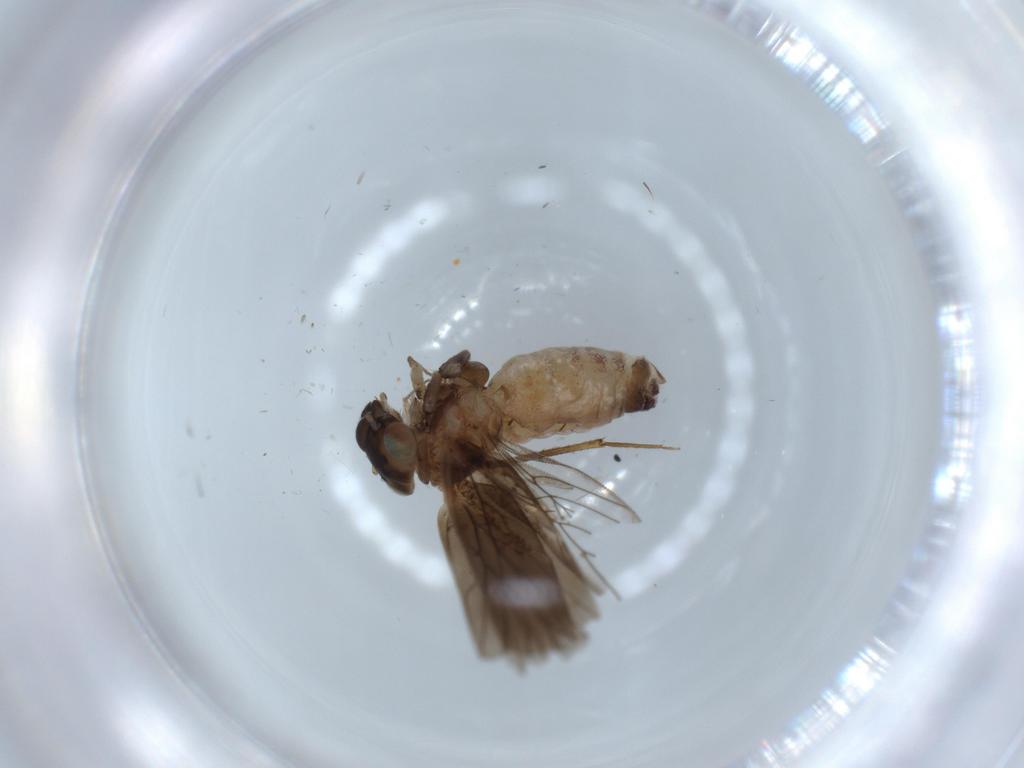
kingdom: Animalia
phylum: Arthropoda
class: Insecta
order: Psocodea
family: Lepidopsocidae
